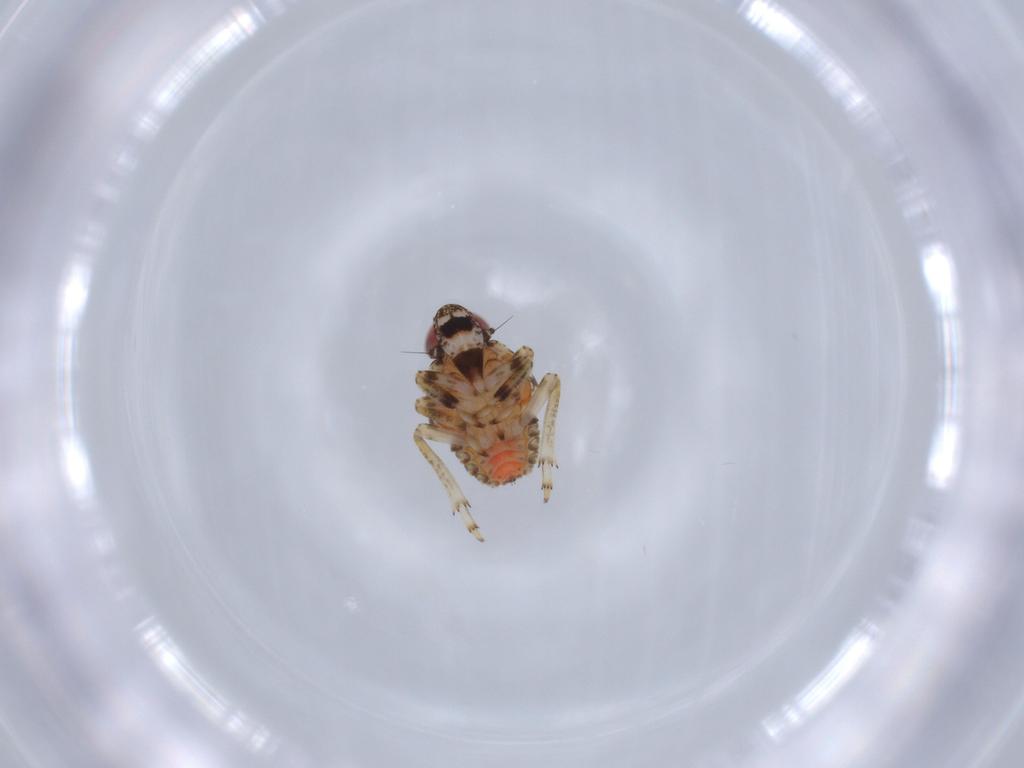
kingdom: Animalia
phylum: Arthropoda
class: Insecta
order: Hemiptera
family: Issidae
